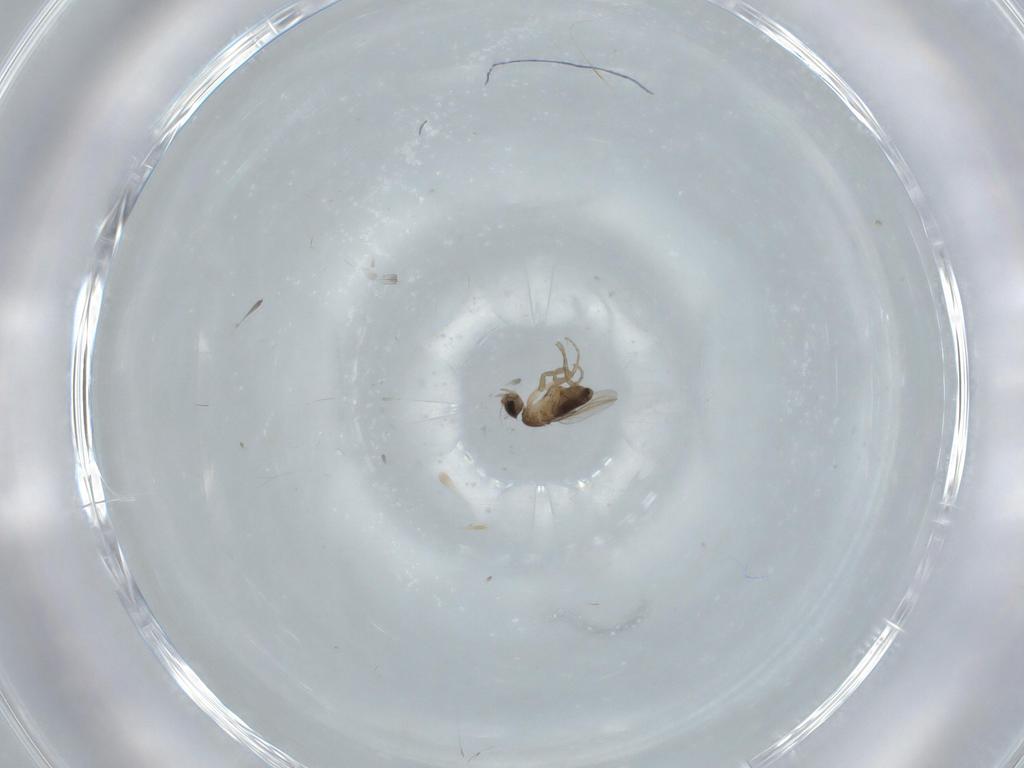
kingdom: Animalia
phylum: Arthropoda
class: Insecta
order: Diptera
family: Phoridae
